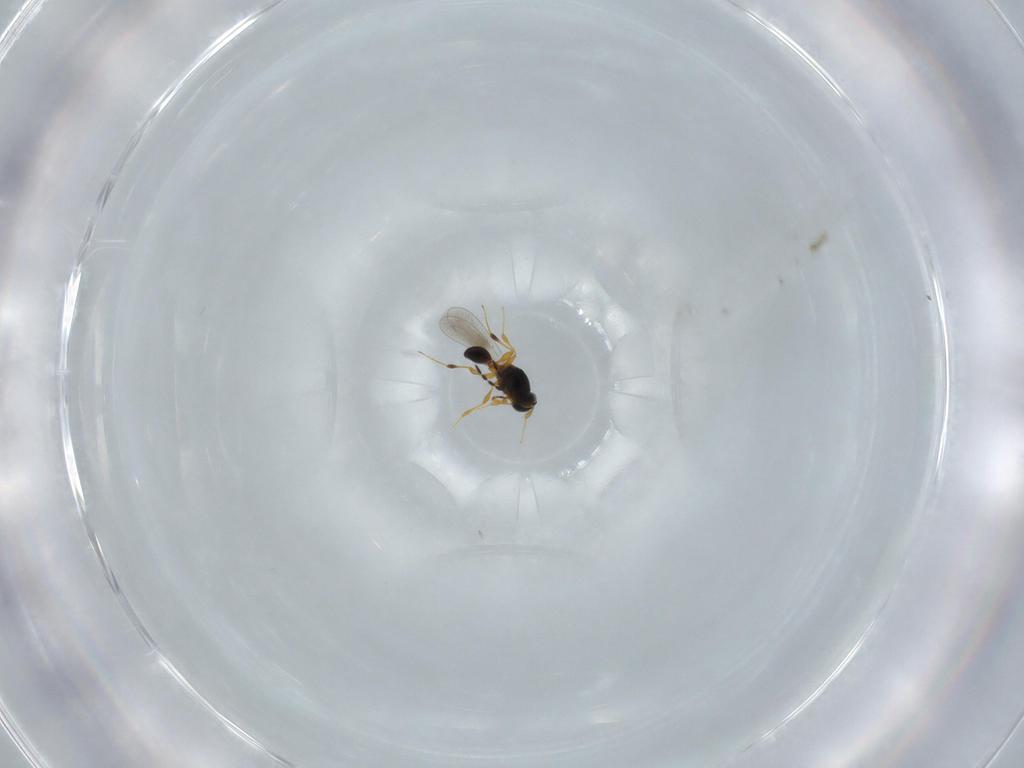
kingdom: Animalia
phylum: Arthropoda
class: Insecta
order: Hymenoptera
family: Platygastridae
